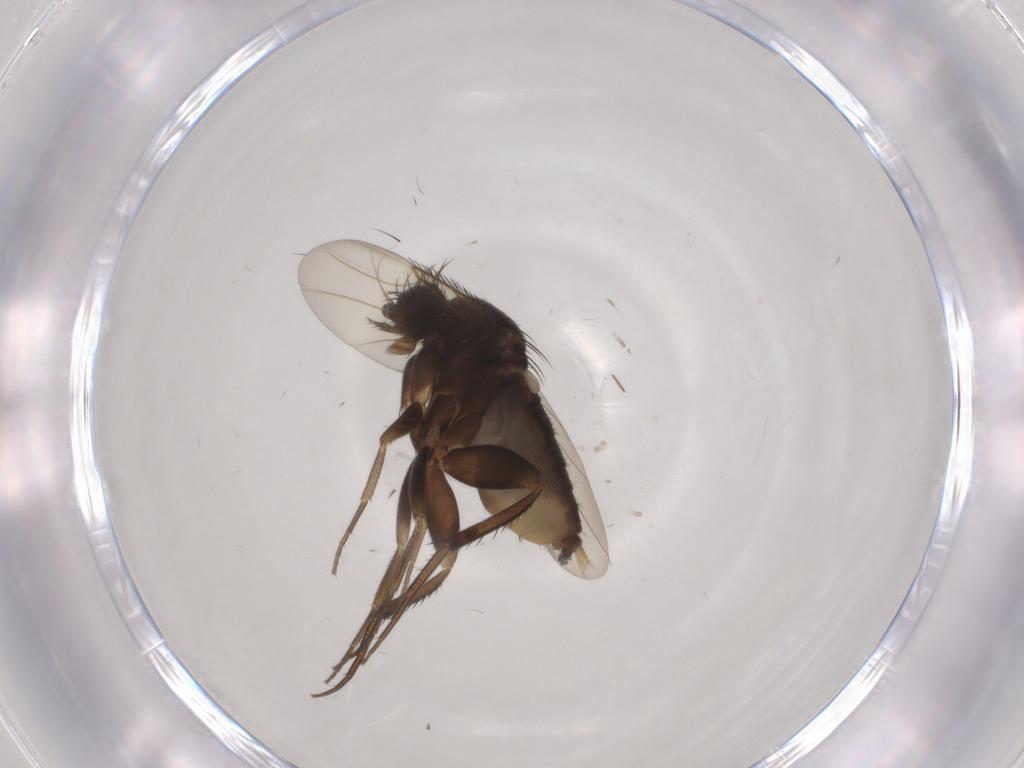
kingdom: Animalia
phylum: Arthropoda
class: Insecta
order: Diptera
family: Phoridae
